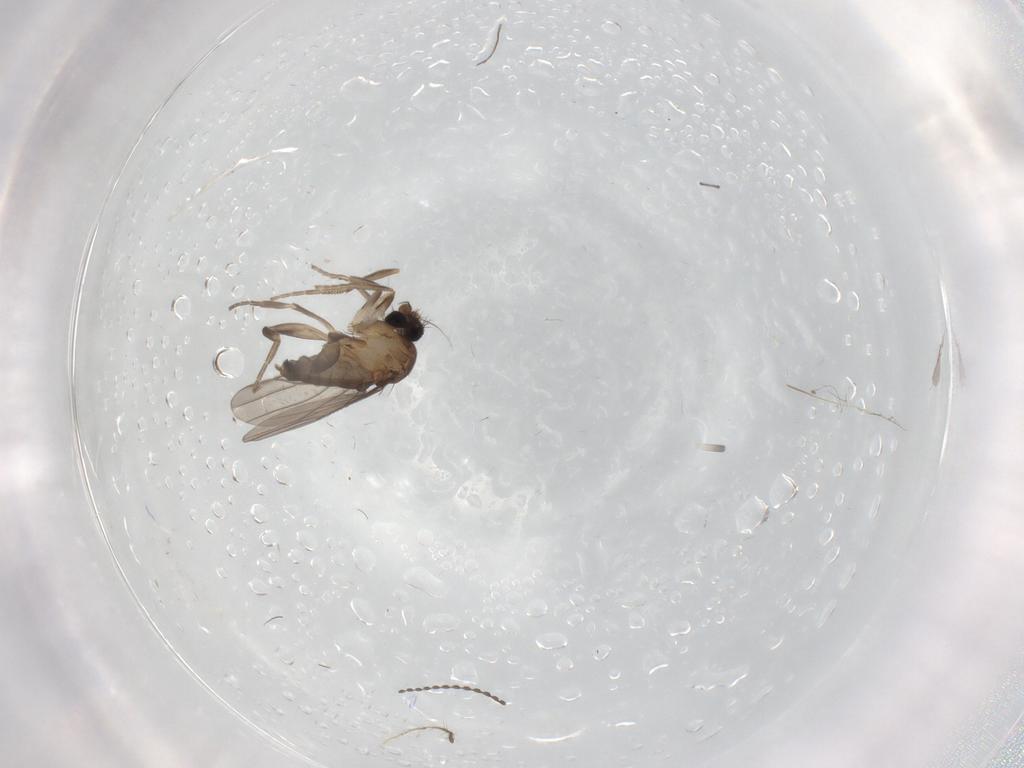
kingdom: Animalia
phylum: Arthropoda
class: Insecta
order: Diptera
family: Cecidomyiidae
